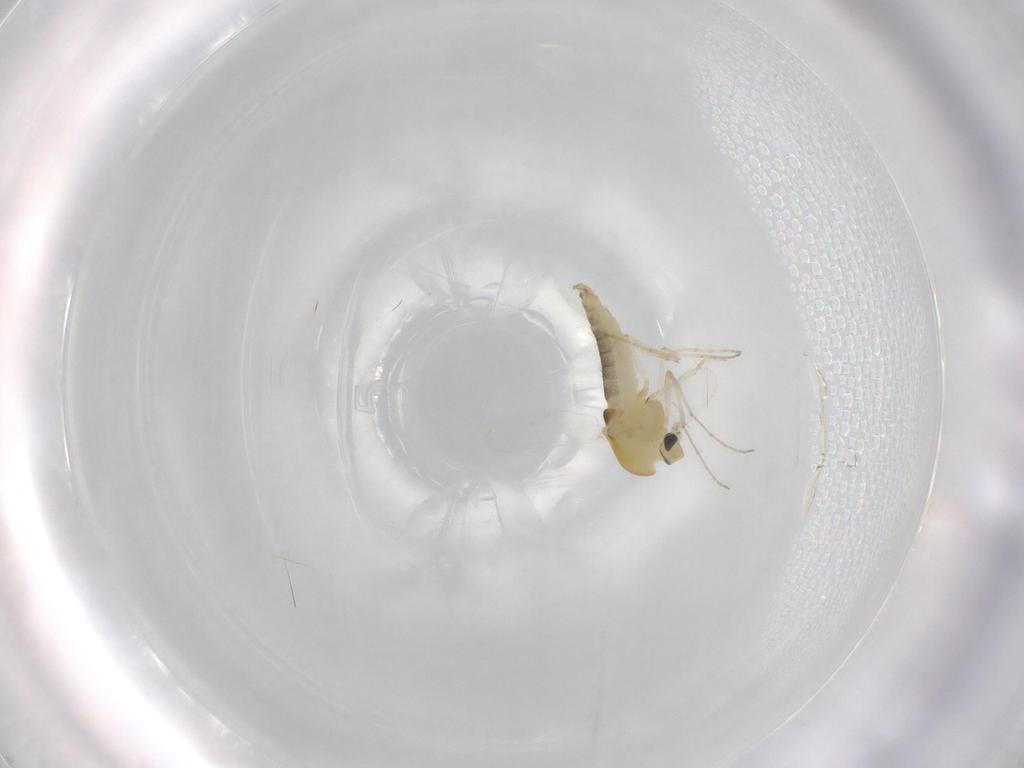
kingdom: Animalia
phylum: Arthropoda
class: Insecta
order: Diptera
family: Chironomidae
